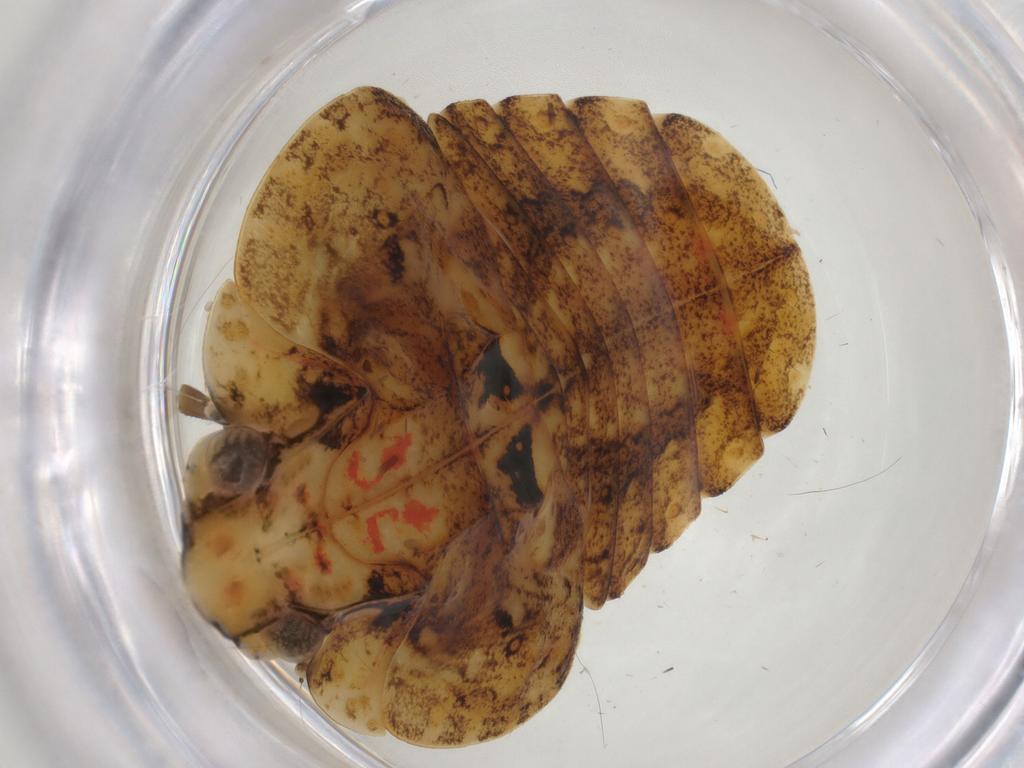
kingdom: Animalia
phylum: Arthropoda
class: Insecta
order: Hemiptera
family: Flatidae
